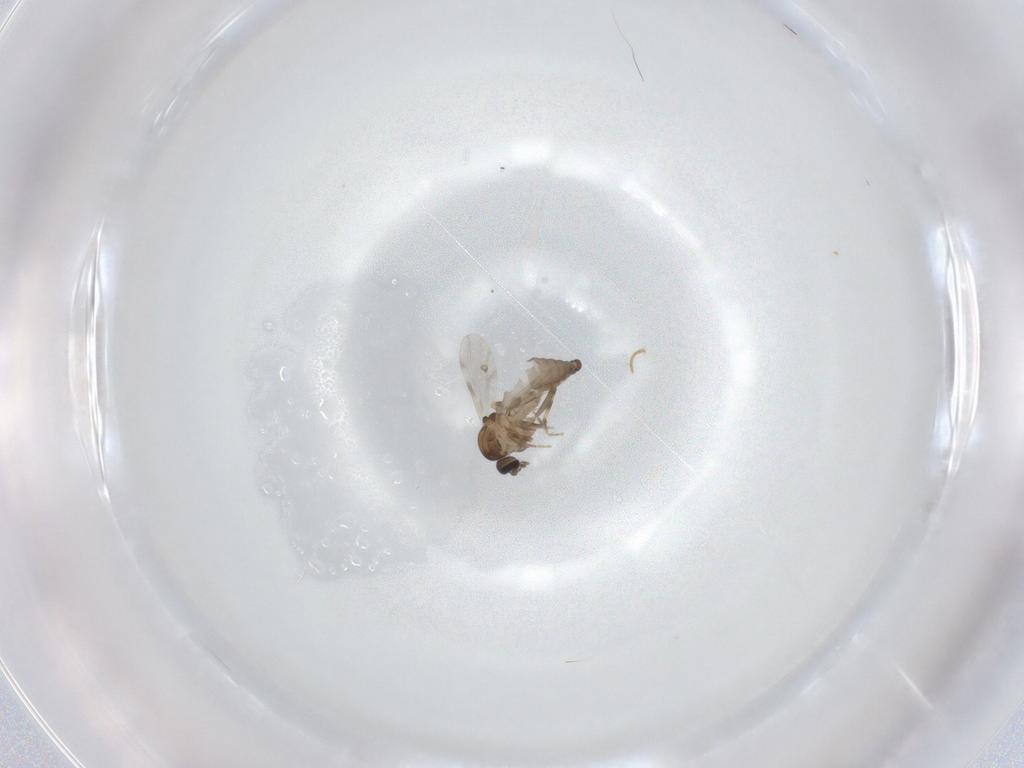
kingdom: Animalia
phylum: Arthropoda
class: Insecta
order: Diptera
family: Ceratopogonidae
